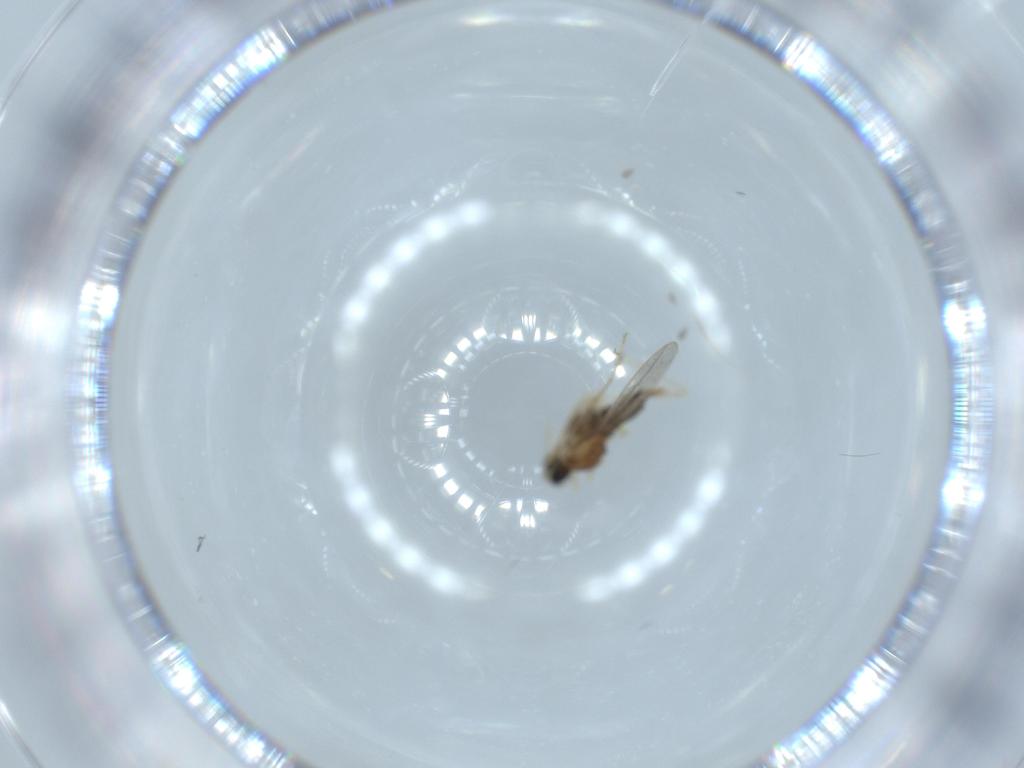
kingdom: Animalia
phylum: Arthropoda
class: Insecta
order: Diptera
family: Cecidomyiidae
